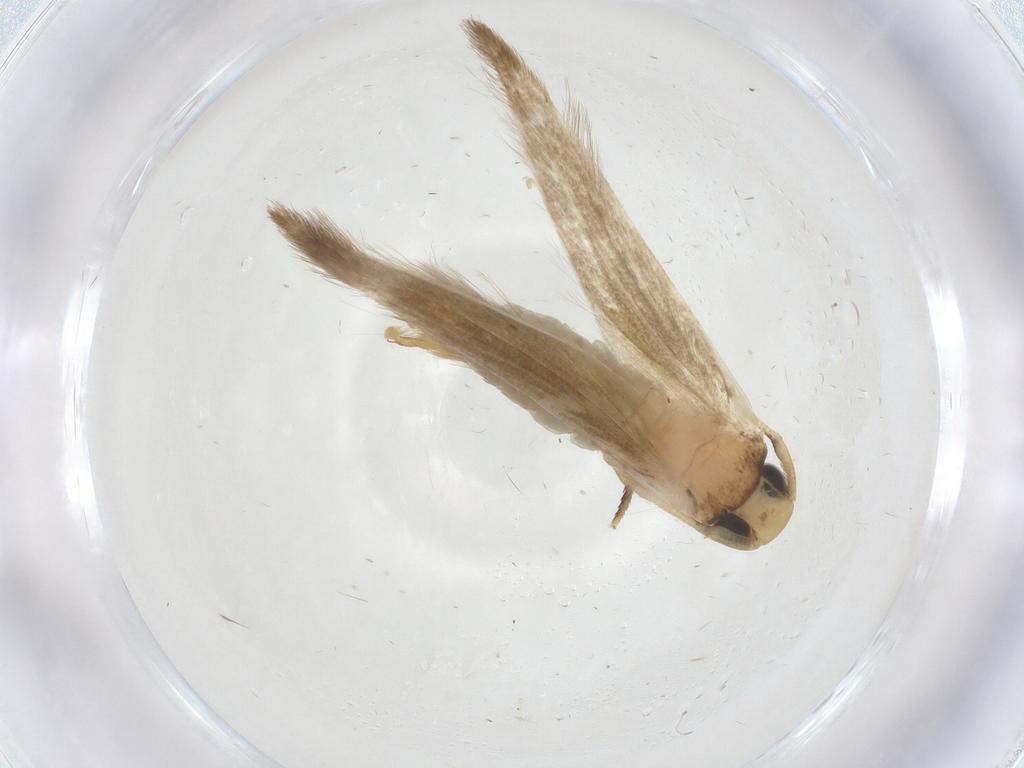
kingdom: Animalia
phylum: Arthropoda
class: Insecta
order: Lepidoptera
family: Tineidae
